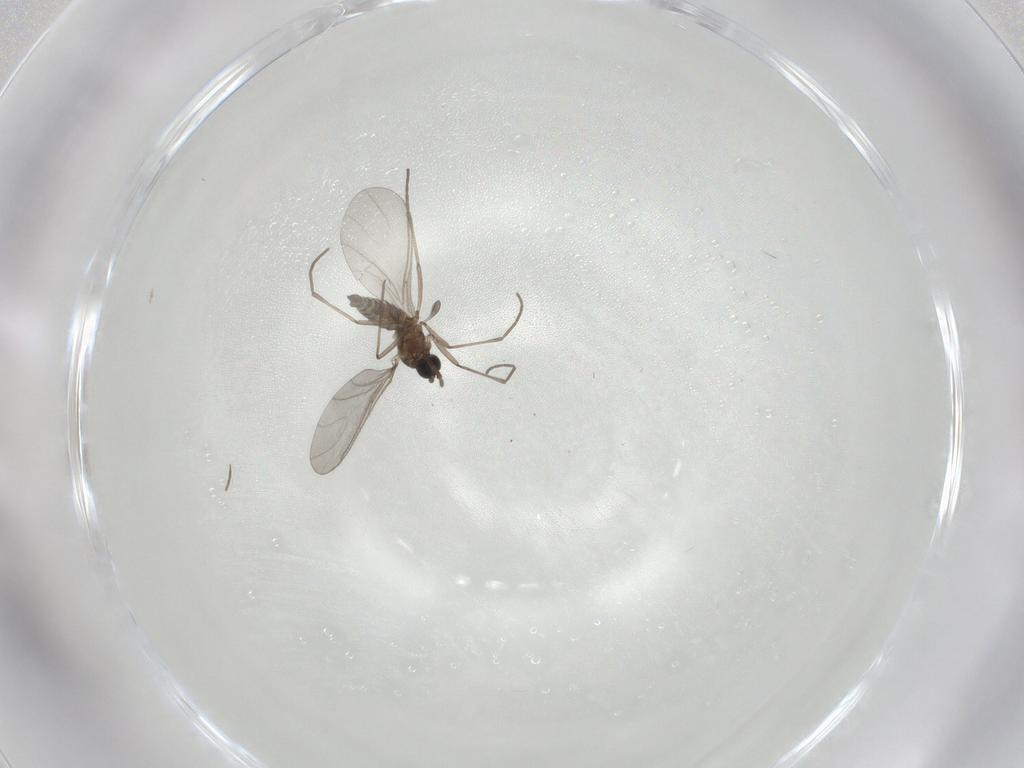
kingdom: Animalia
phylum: Arthropoda
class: Insecta
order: Diptera
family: Sciaridae
